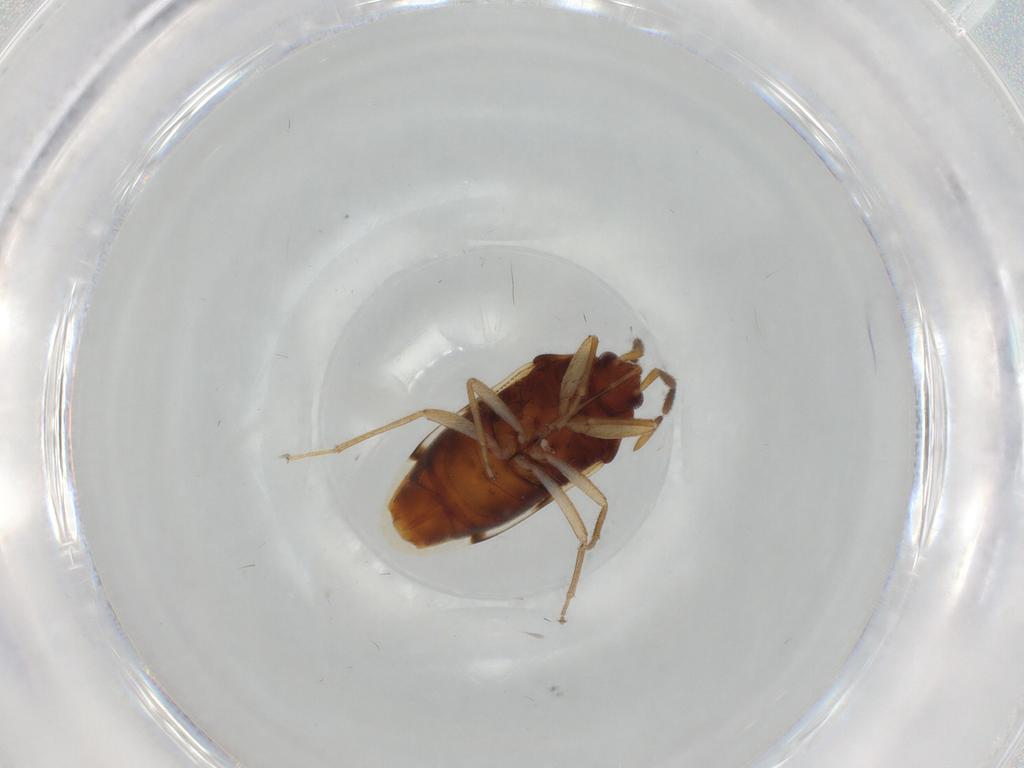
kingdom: Animalia
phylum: Arthropoda
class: Insecta
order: Hemiptera
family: Rhyparochromidae
